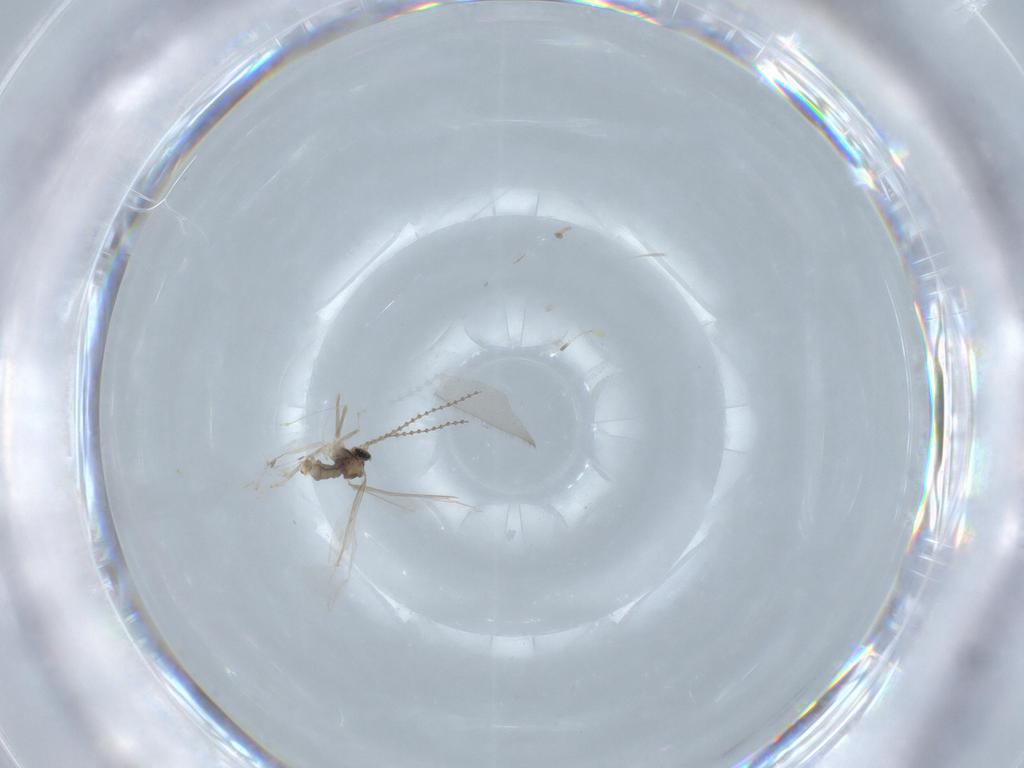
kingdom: Animalia
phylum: Arthropoda
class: Insecta
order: Diptera
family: Cecidomyiidae
